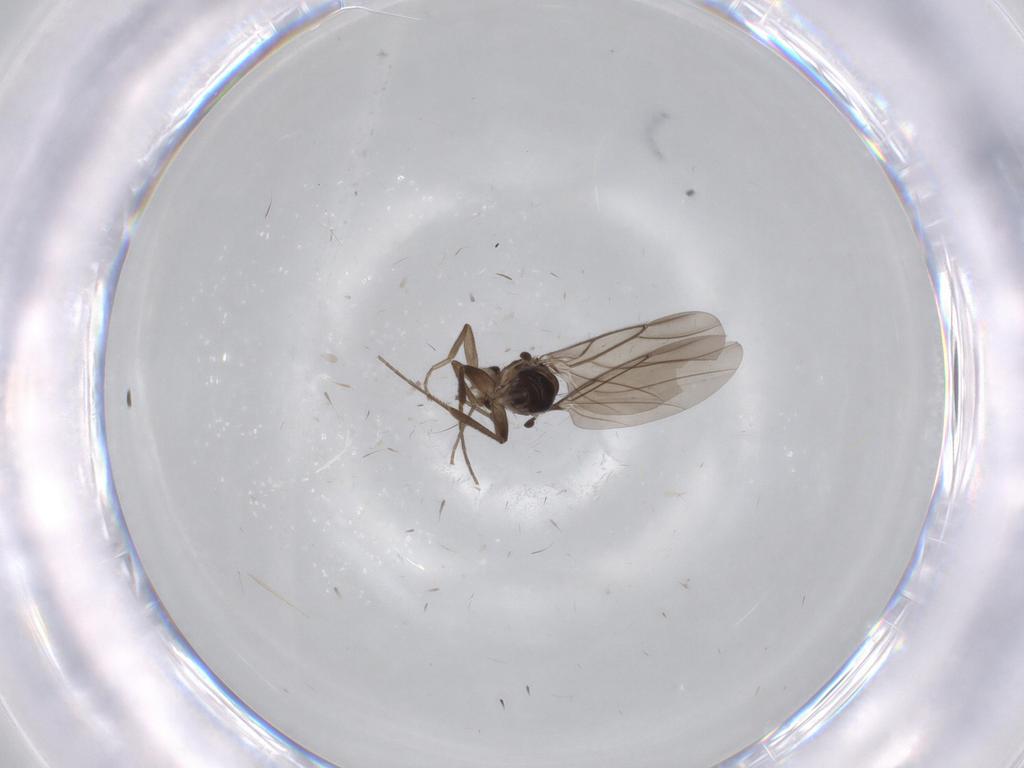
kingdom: Animalia
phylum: Arthropoda
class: Insecta
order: Diptera
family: Phoridae
